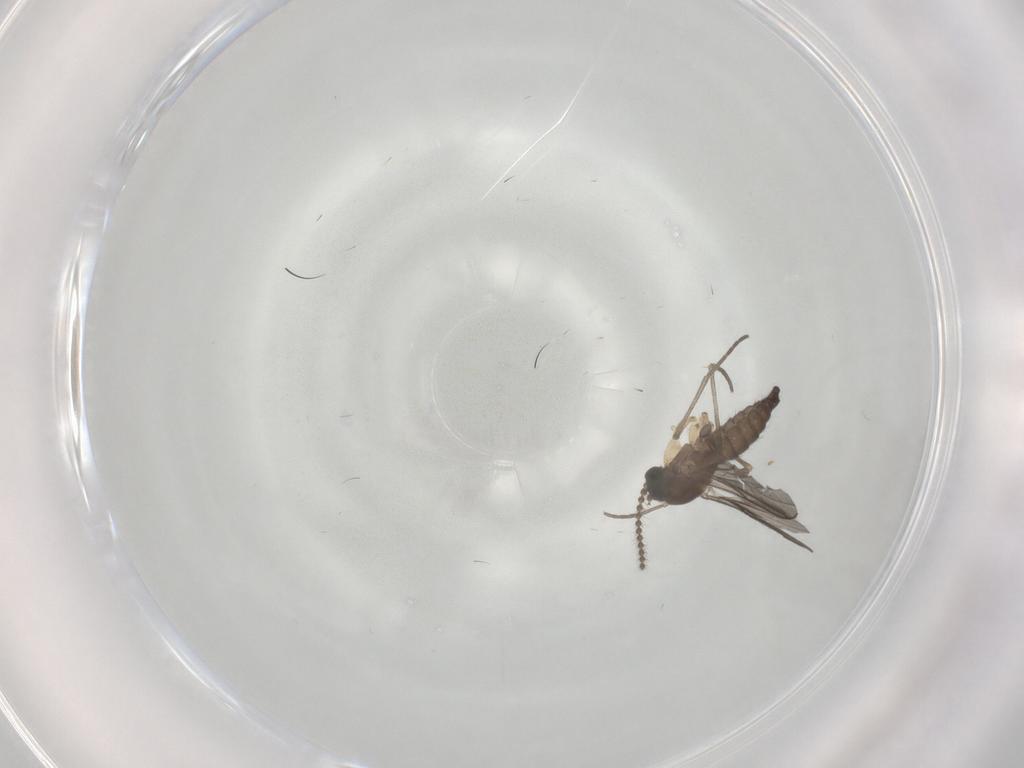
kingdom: Animalia
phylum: Arthropoda
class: Insecta
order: Diptera
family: Sciaridae
